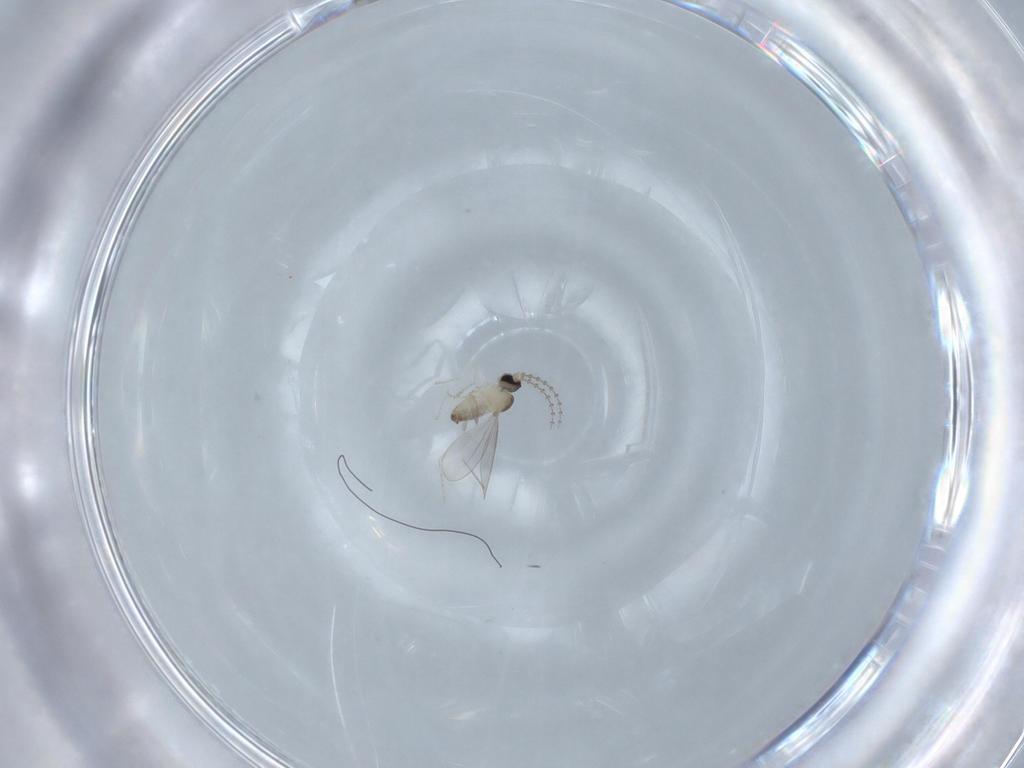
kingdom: Animalia
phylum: Arthropoda
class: Insecta
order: Diptera
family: Cecidomyiidae
